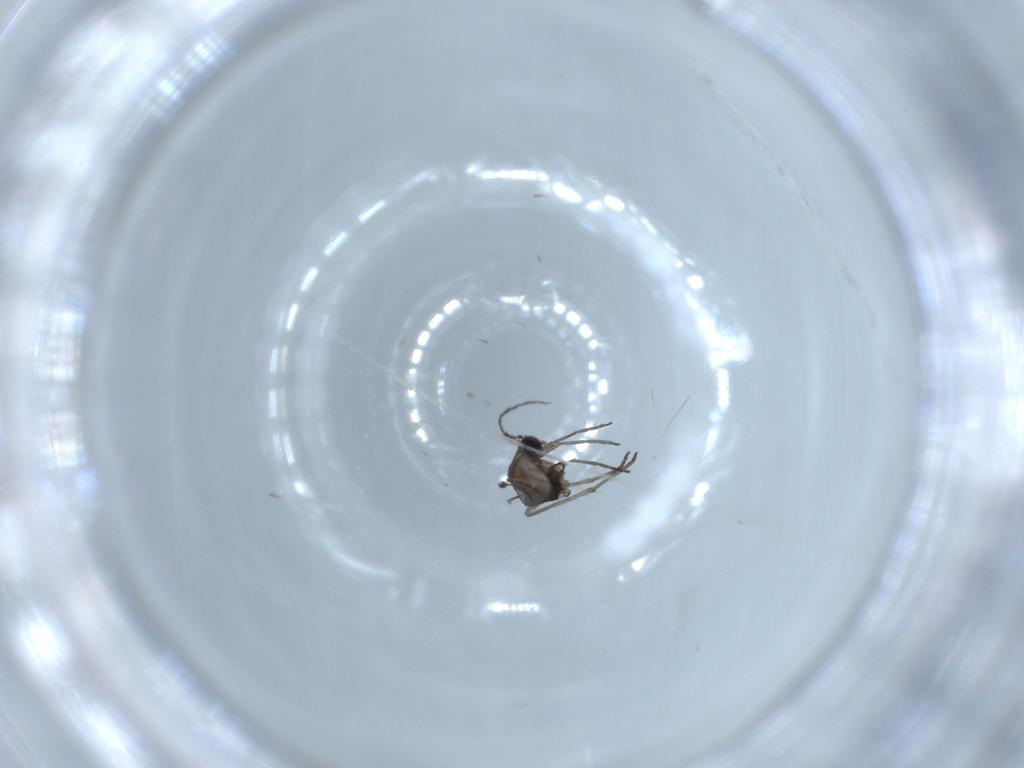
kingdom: Animalia
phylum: Arthropoda
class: Insecta
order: Diptera
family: Sciaridae
